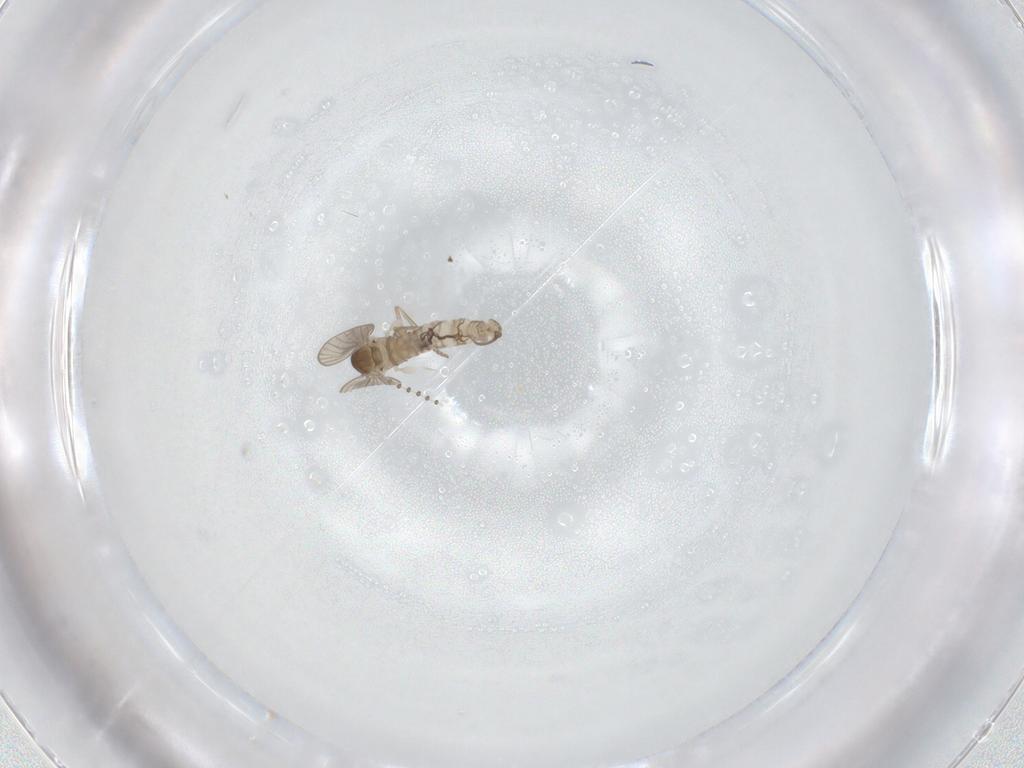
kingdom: Animalia
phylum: Arthropoda
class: Insecta
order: Diptera
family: Psychodidae
